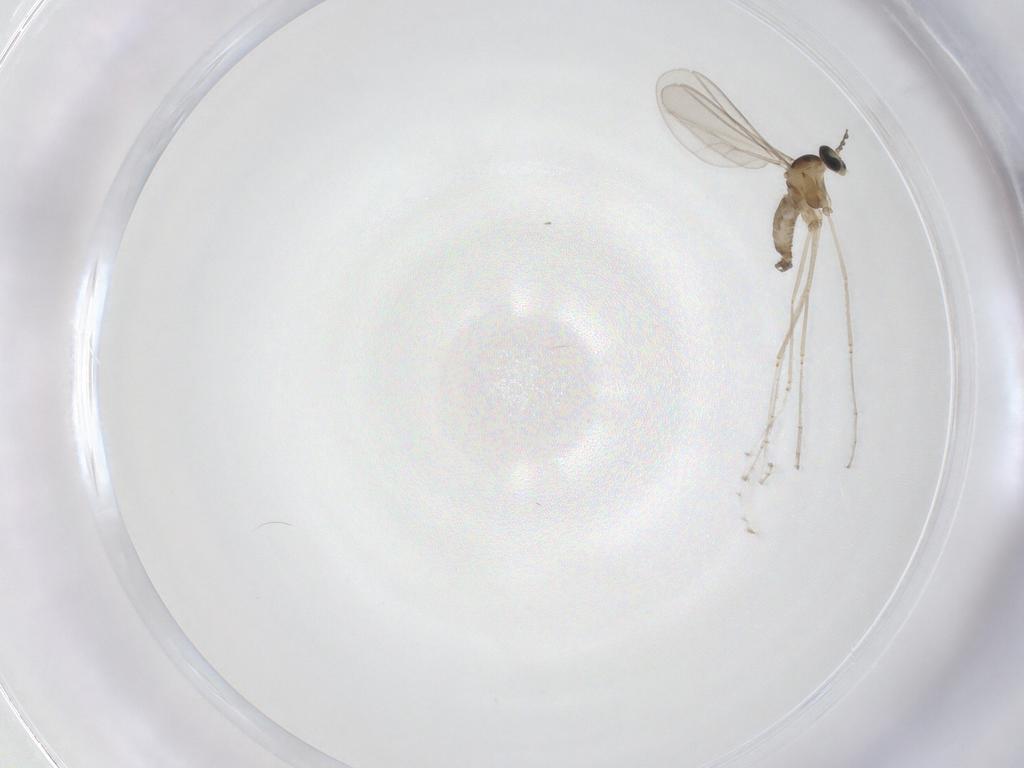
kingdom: Animalia
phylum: Arthropoda
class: Insecta
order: Diptera
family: Cecidomyiidae
